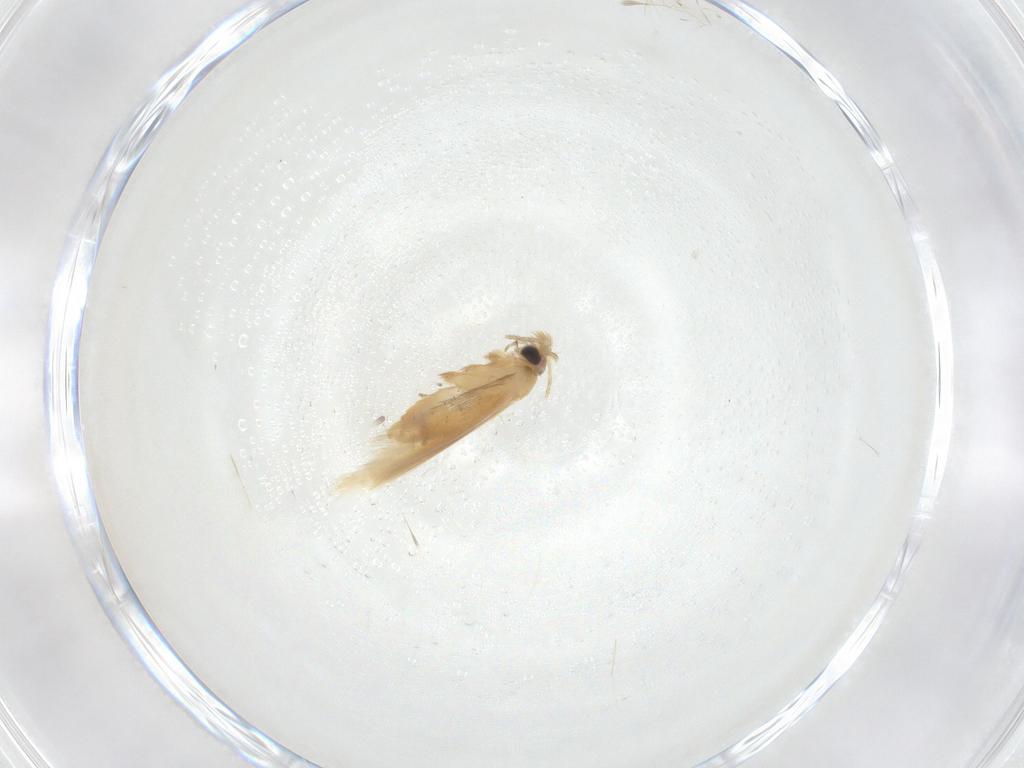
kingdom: Animalia
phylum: Arthropoda
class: Insecta
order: Lepidoptera
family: Nepticulidae
